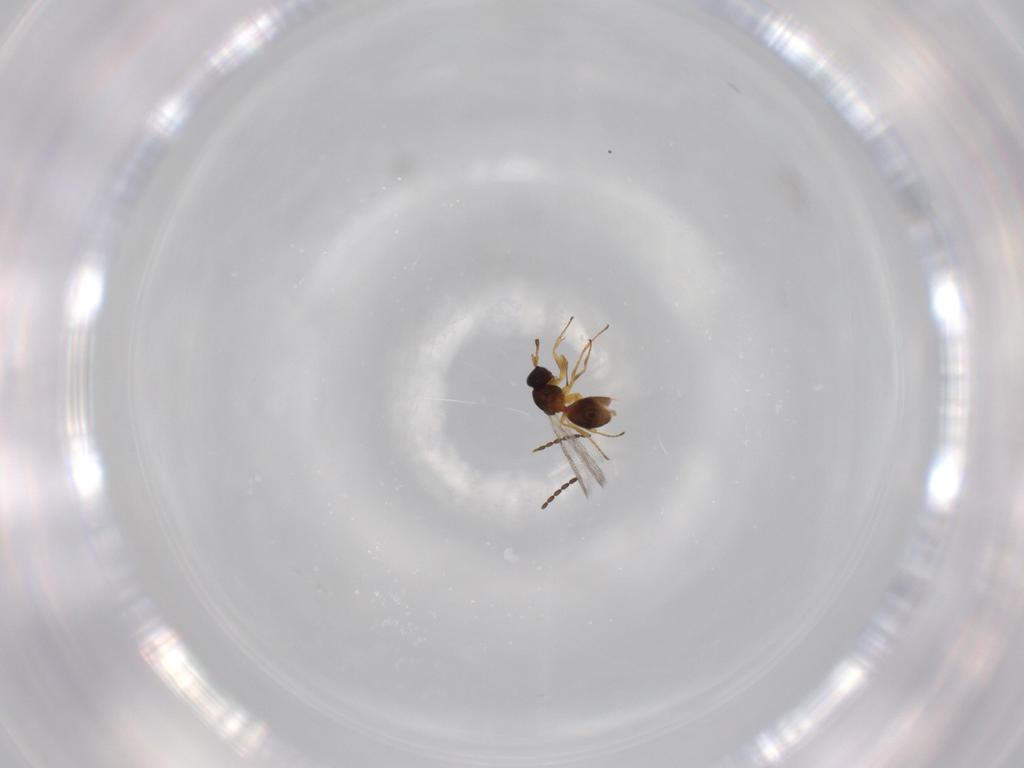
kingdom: Animalia
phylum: Arthropoda
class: Insecta
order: Hymenoptera
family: Figitidae
